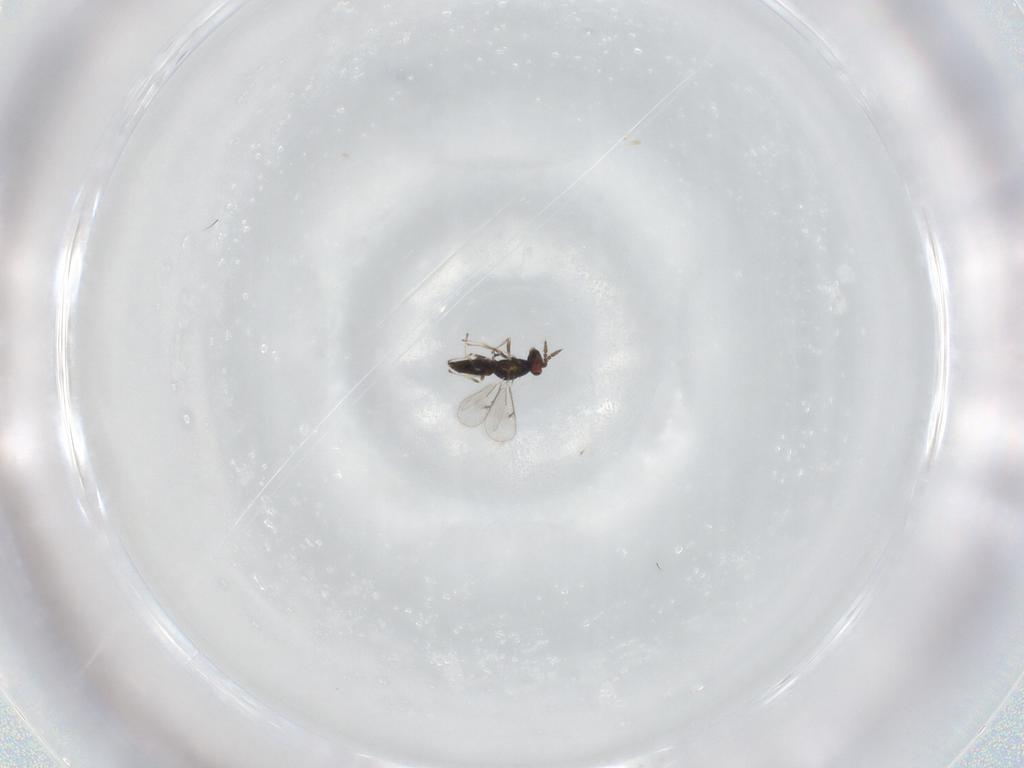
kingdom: Animalia
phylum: Arthropoda
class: Insecta
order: Hymenoptera
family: Eulophidae
